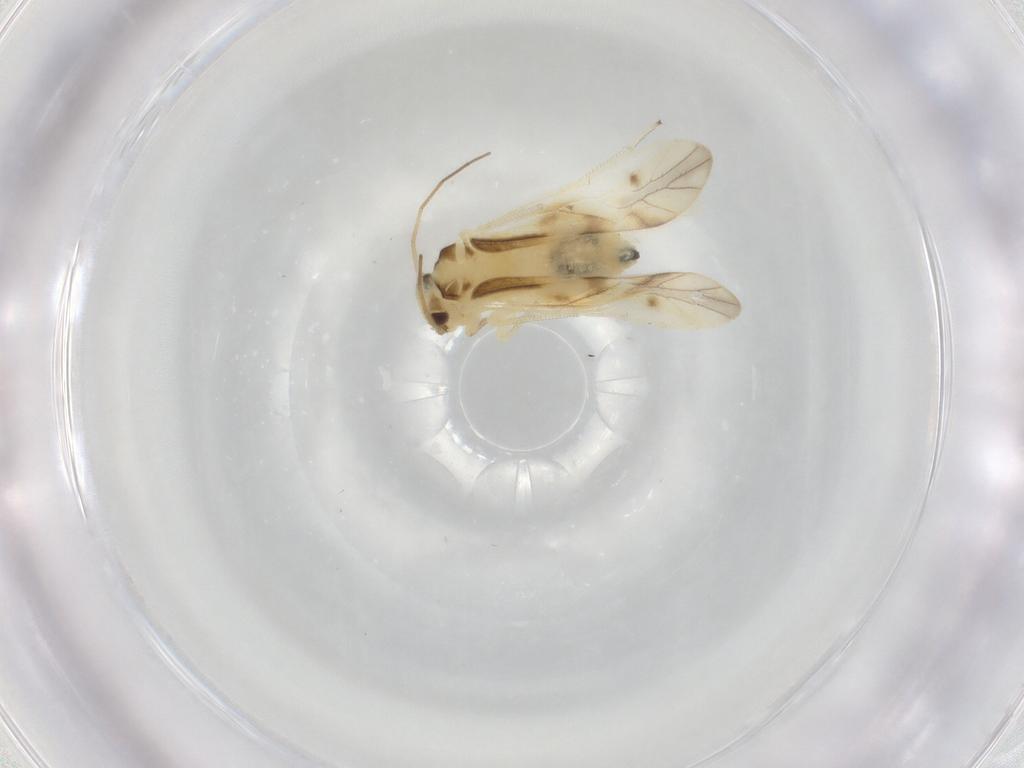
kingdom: Animalia
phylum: Arthropoda
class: Insecta
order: Psocodea
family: Caeciliusidae
